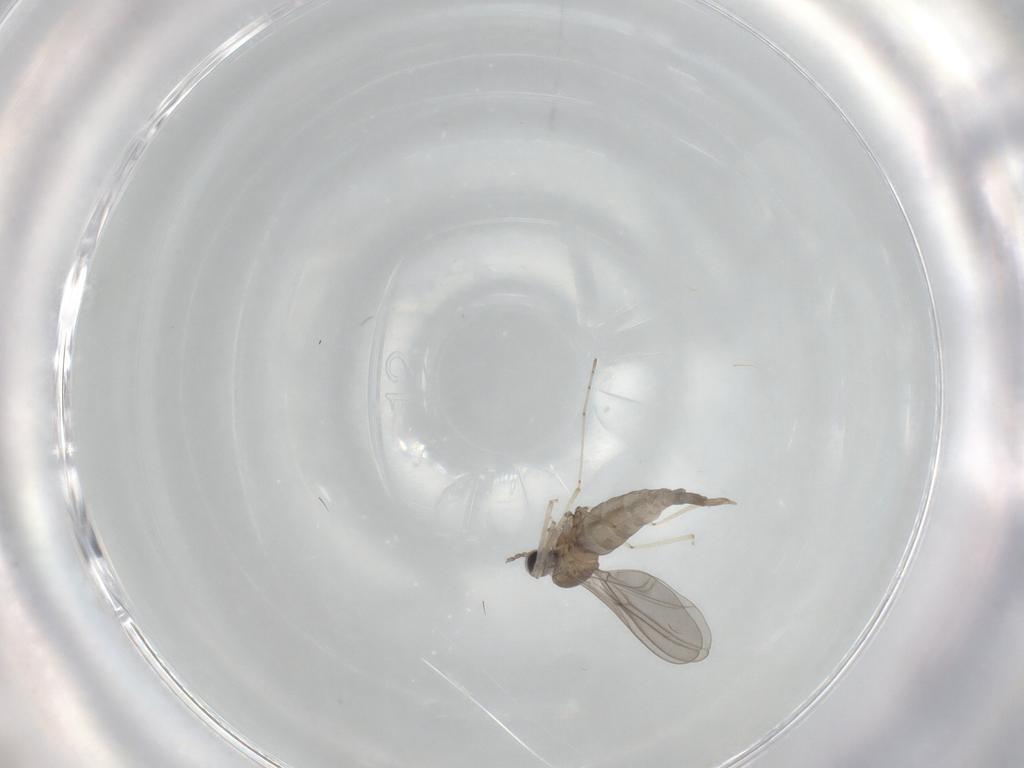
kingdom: Animalia
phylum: Arthropoda
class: Insecta
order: Diptera
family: Cecidomyiidae
